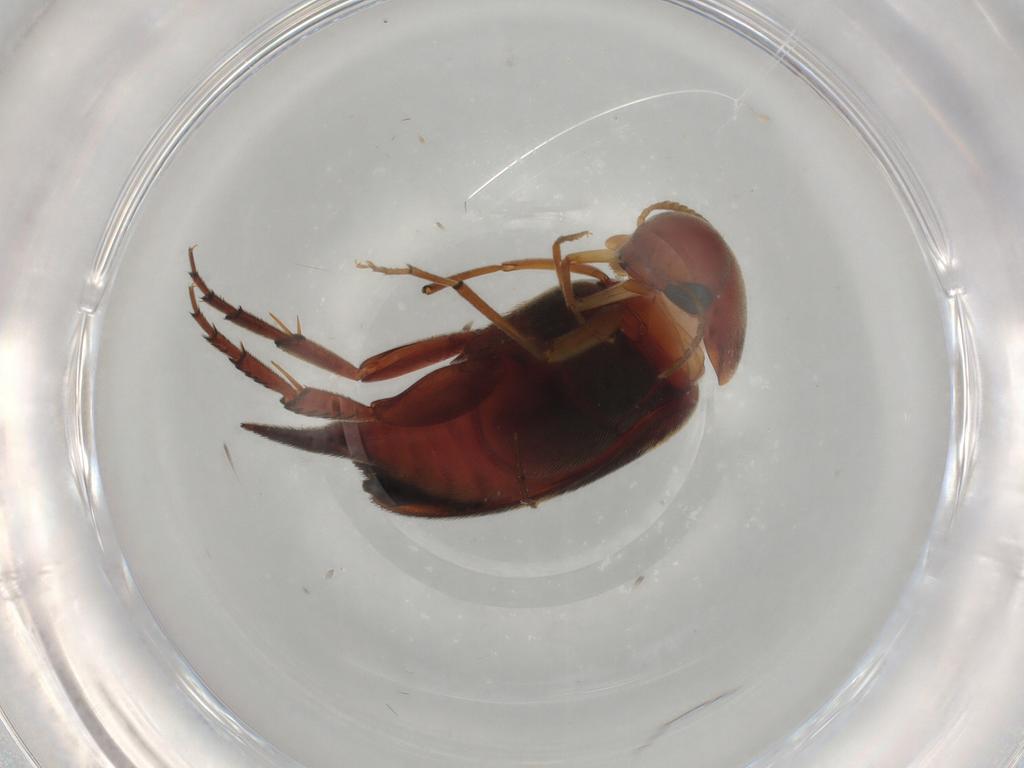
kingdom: Animalia
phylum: Arthropoda
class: Insecta
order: Coleoptera
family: Mordellidae
